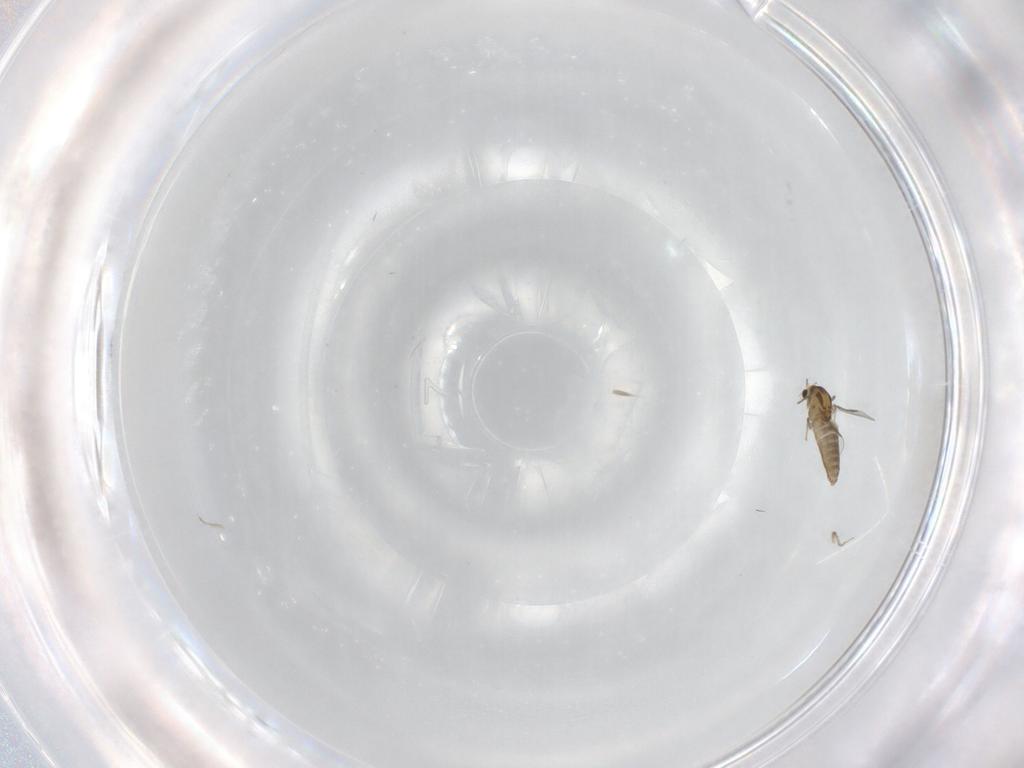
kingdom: Animalia
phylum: Arthropoda
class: Insecta
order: Diptera
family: Chironomidae
